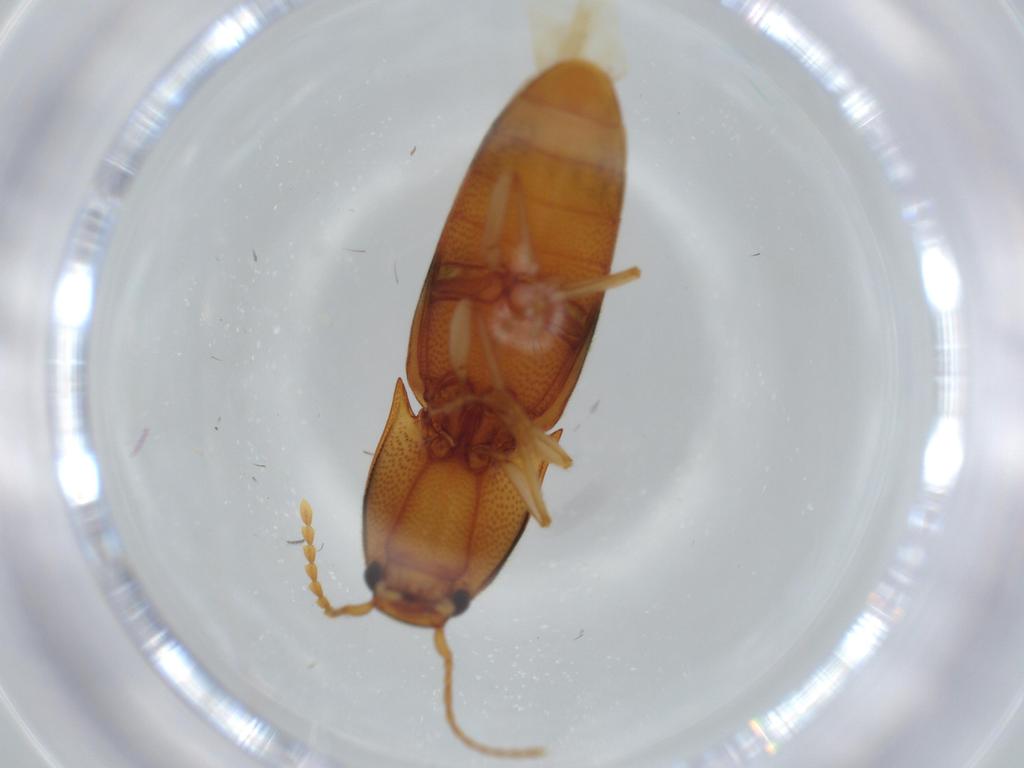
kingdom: Animalia
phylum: Arthropoda
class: Insecta
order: Coleoptera
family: Elateridae
